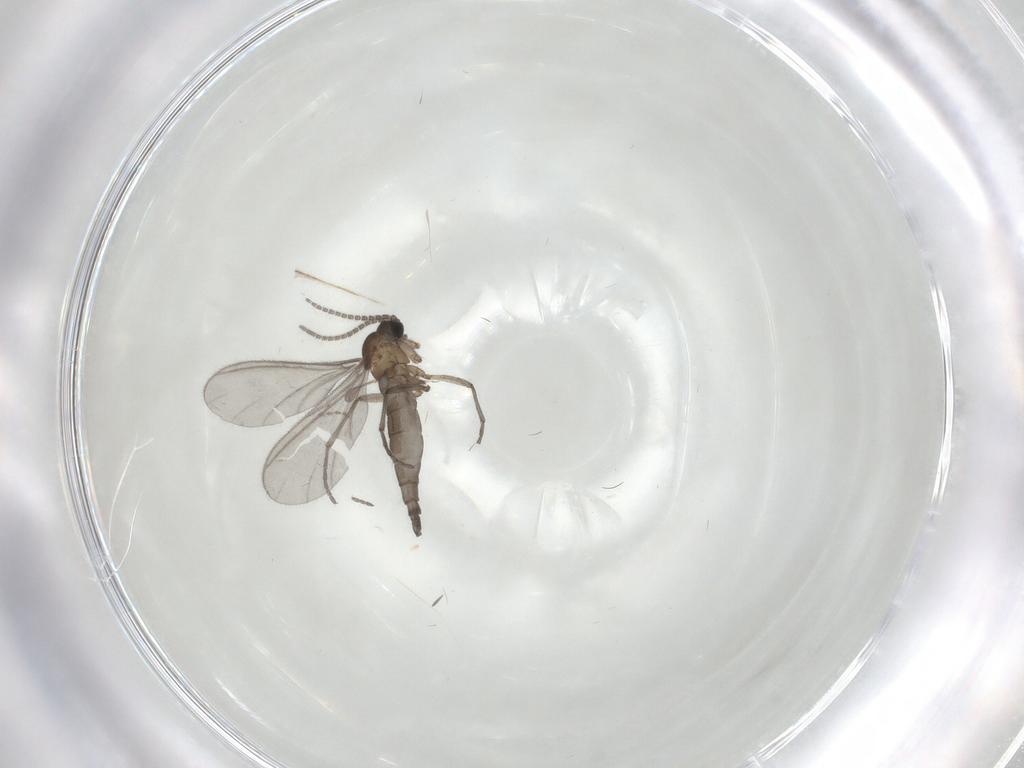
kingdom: Animalia
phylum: Arthropoda
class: Insecta
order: Diptera
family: Sciaridae
